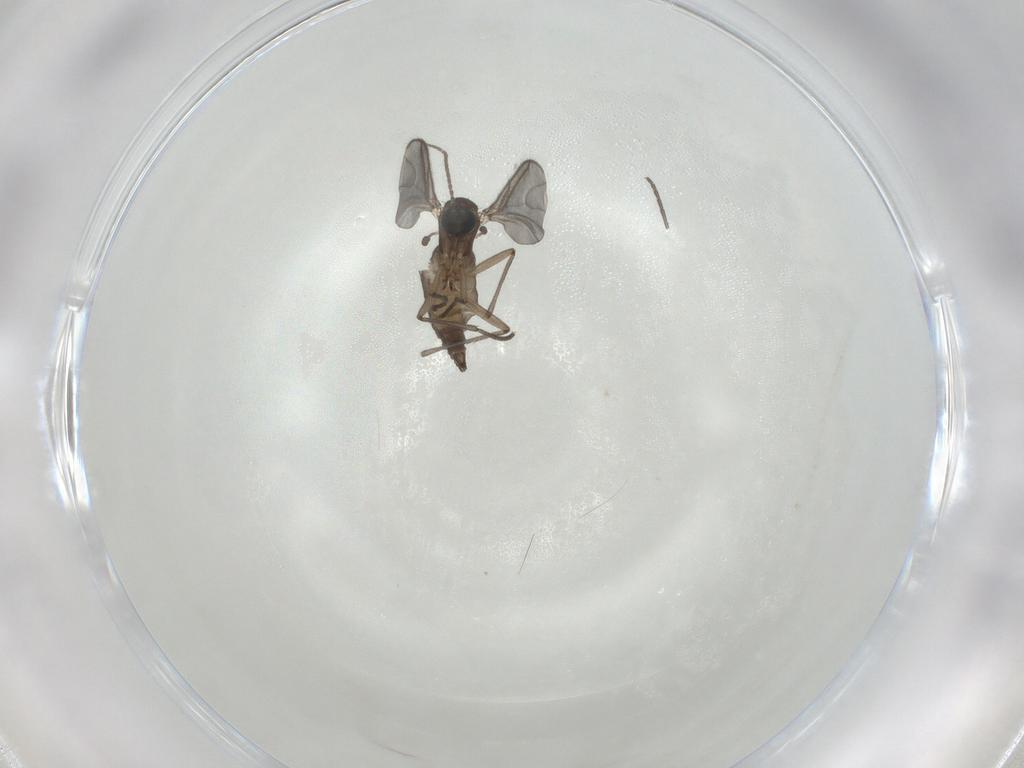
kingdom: Animalia
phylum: Arthropoda
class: Insecta
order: Diptera
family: Sciaridae
